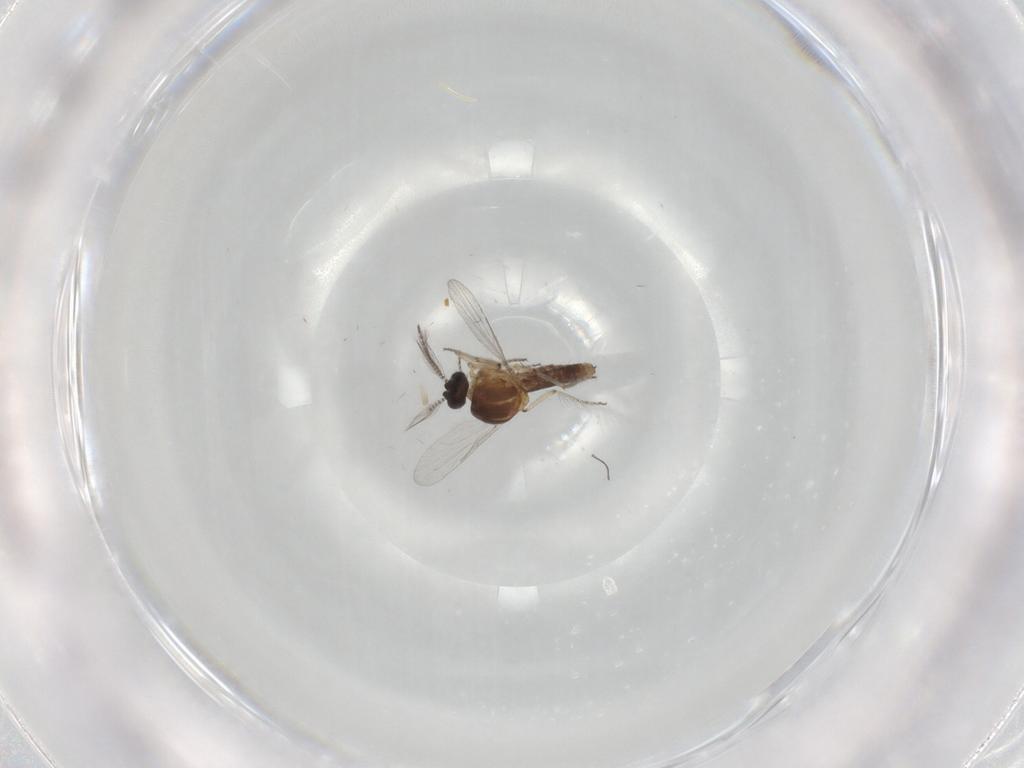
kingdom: Animalia
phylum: Arthropoda
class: Insecta
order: Diptera
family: Ceratopogonidae
